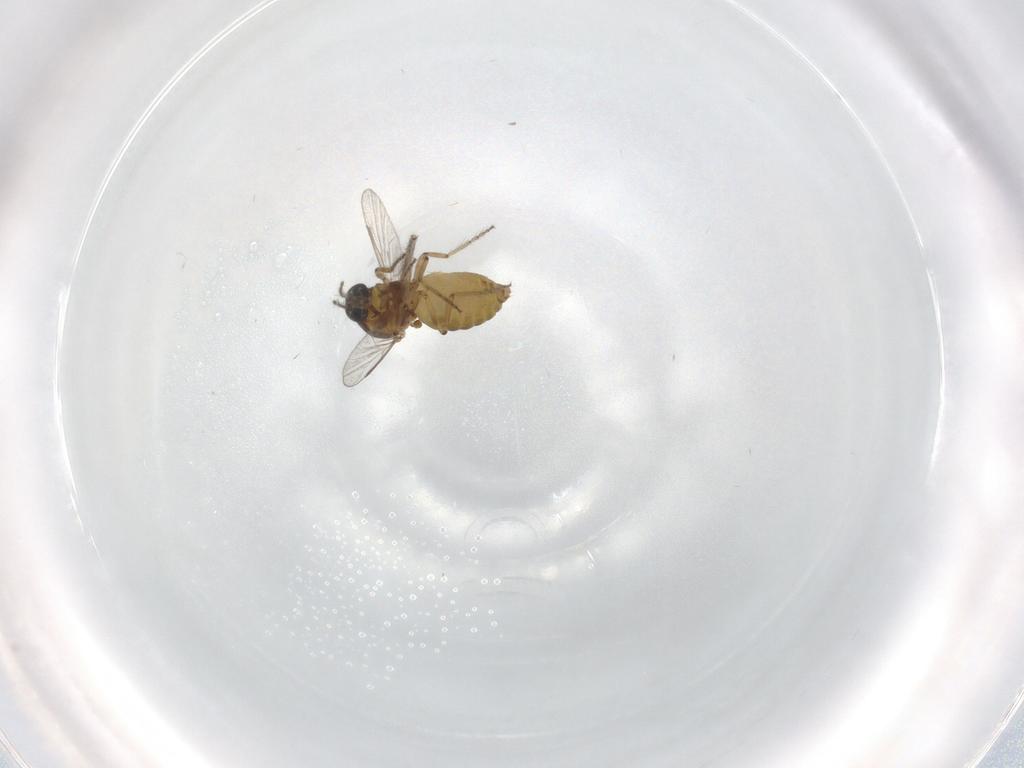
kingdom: Animalia
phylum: Arthropoda
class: Insecta
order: Diptera
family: Ceratopogonidae
